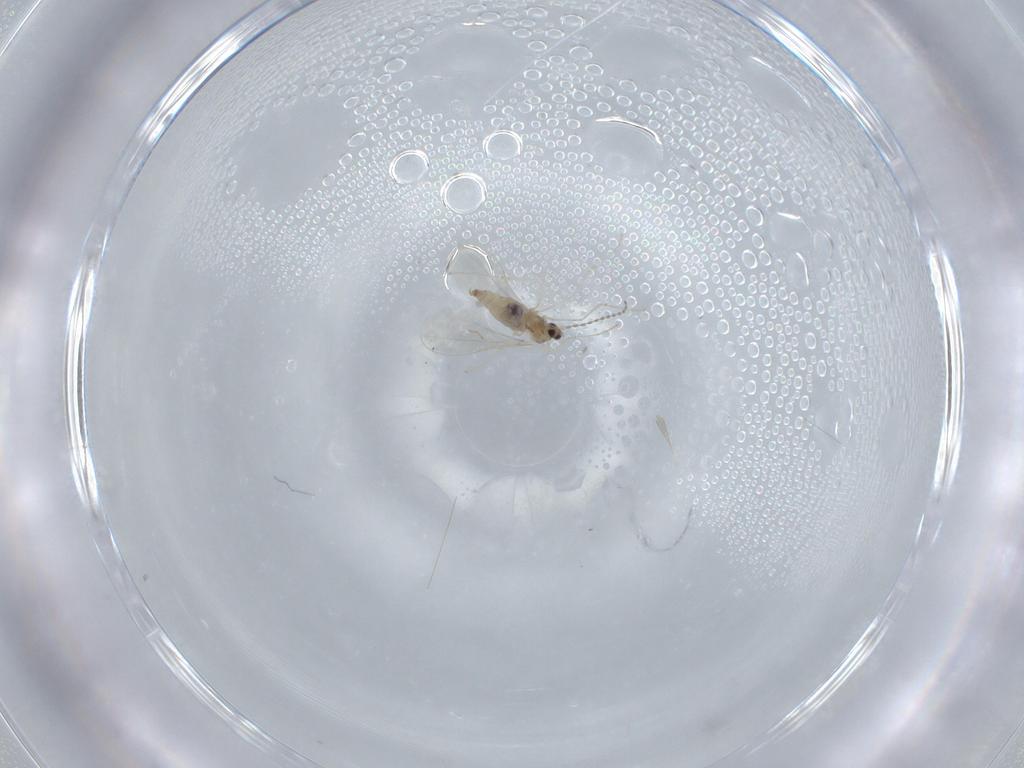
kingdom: Animalia
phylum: Arthropoda
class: Insecta
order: Diptera
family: Cecidomyiidae
